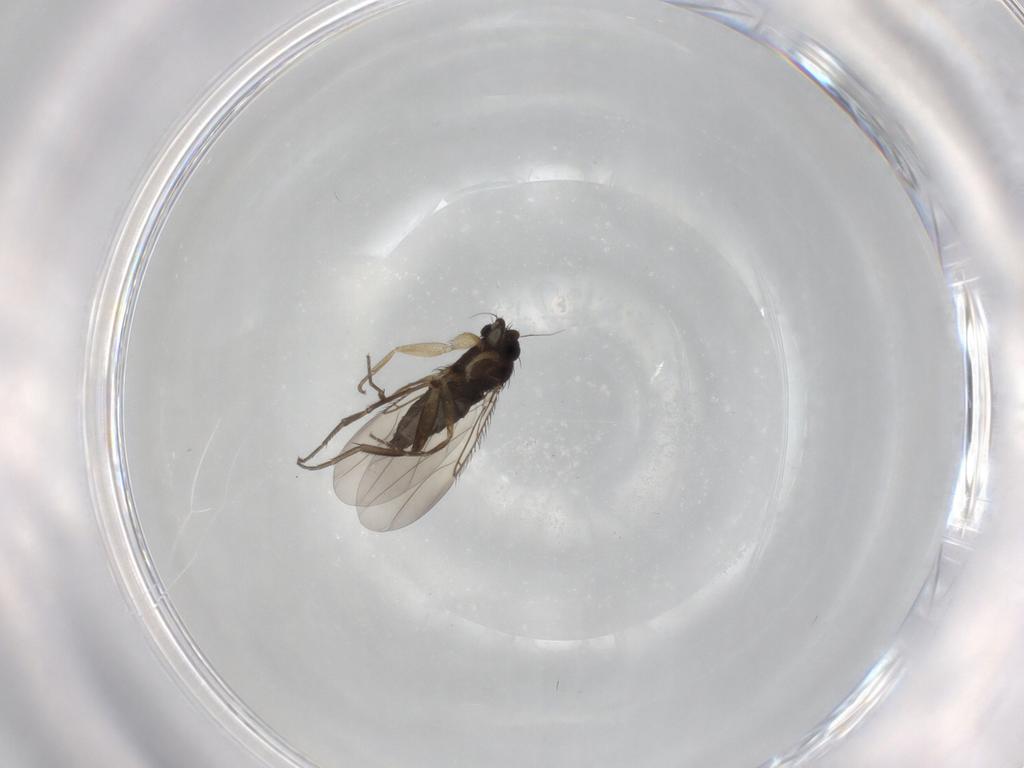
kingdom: Animalia
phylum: Arthropoda
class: Insecta
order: Diptera
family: Phoridae
